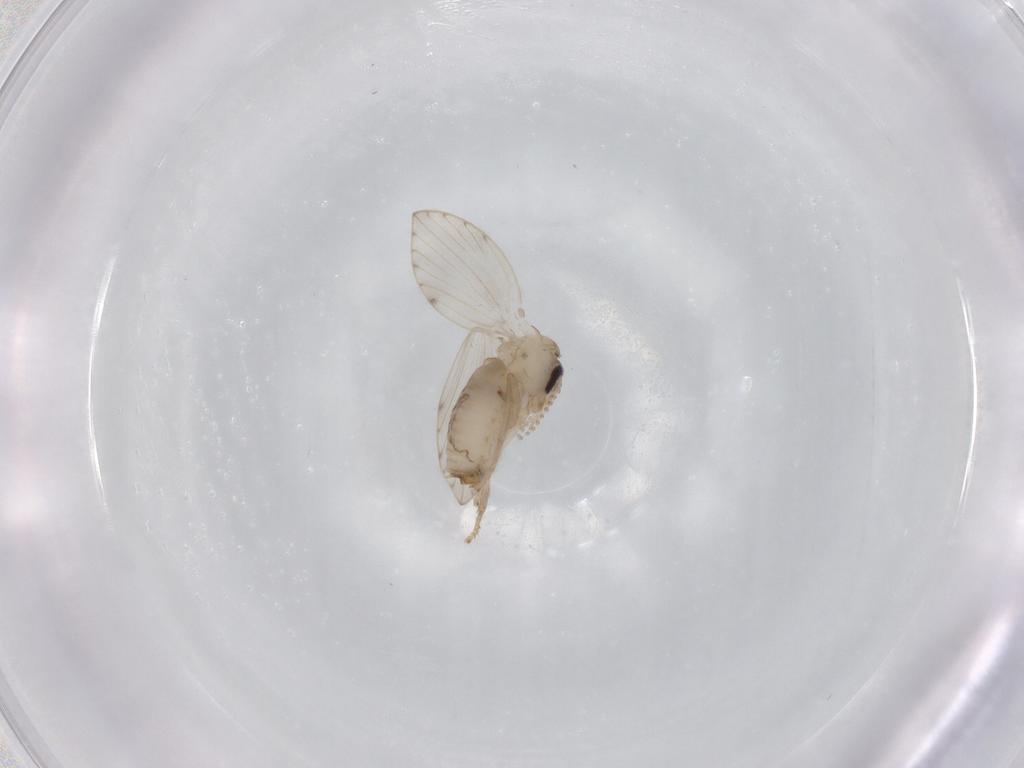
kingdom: Animalia
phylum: Arthropoda
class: Insecta
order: Diptera
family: Psychodidae
